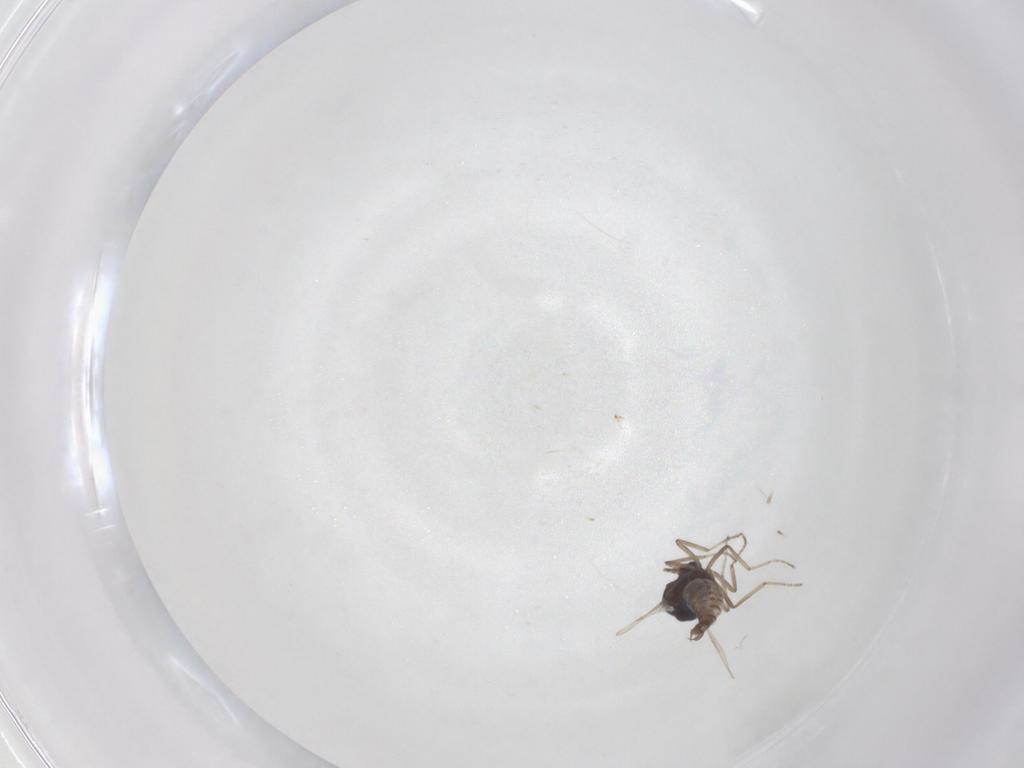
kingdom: Animalia
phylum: Arthropoda
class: Insecta
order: Diptera
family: Ceratopogonidae
